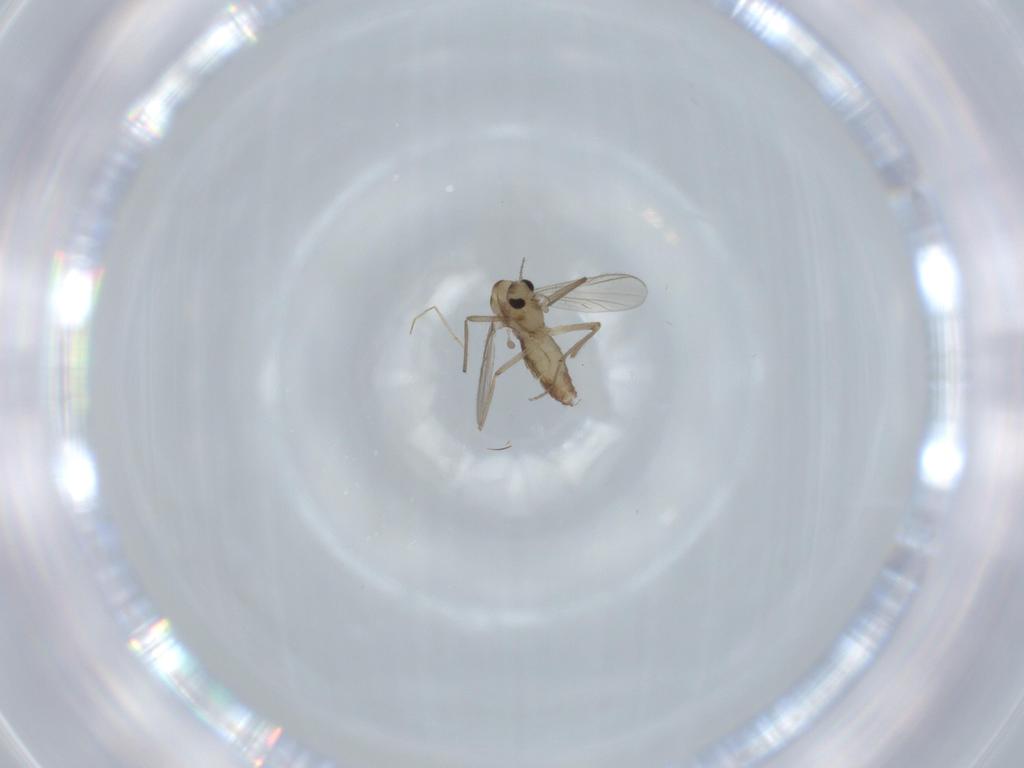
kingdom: Animalia
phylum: Arthropoda
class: Insecta
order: Diptera
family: Chironomidae
